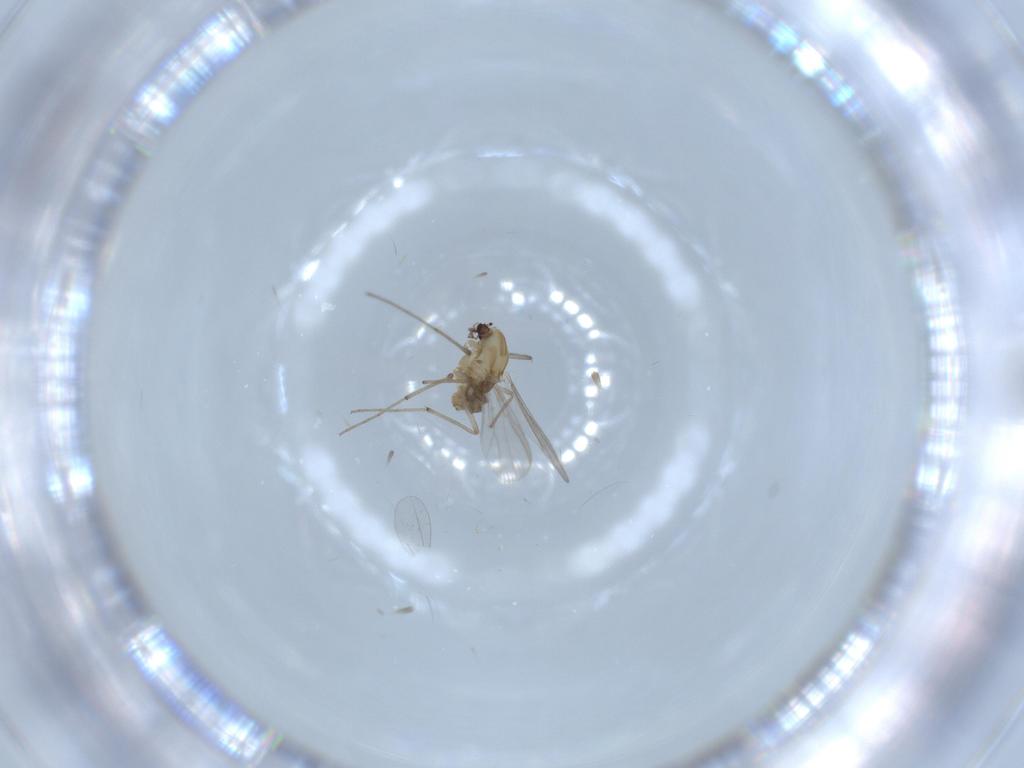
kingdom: Animalia
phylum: Arthropoda
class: Insecta
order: Diptera
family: Chironomidae
